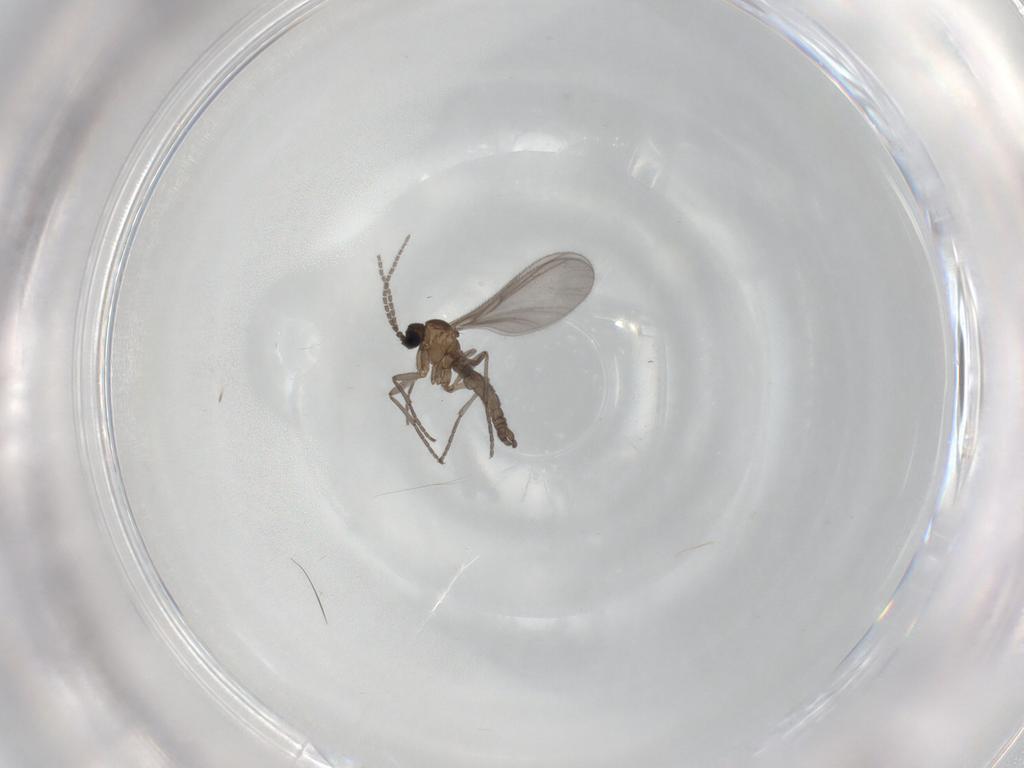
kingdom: Animalia
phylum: Arthropoda
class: Insecta
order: Diptera
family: Sciaridae
